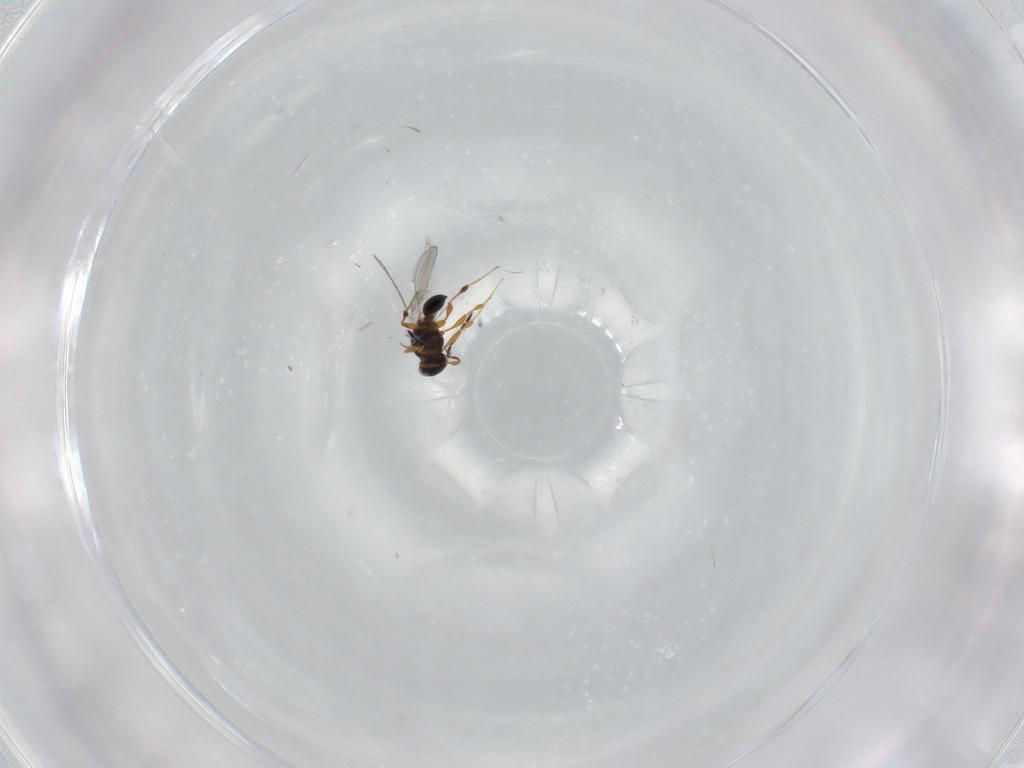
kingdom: Animalia
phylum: Arthropoda
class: Insecta
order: Hymenoptera
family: Platygastridae
